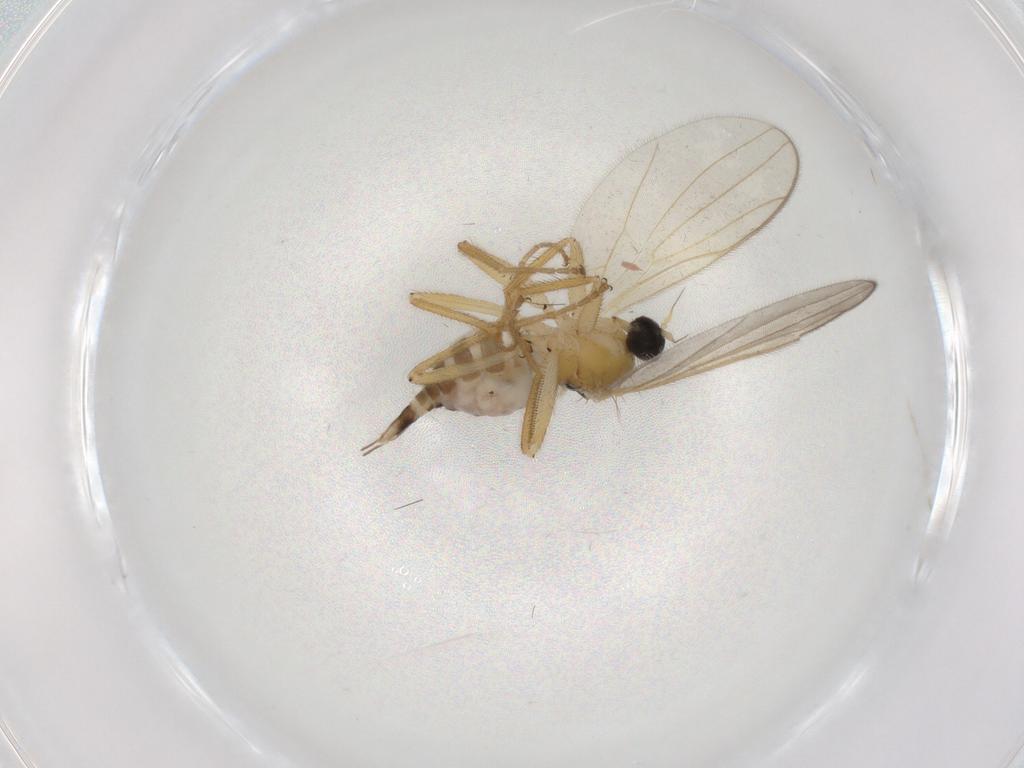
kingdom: Animalia
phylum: Arthropoda
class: Insecta
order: Diptera
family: Hybotidae
